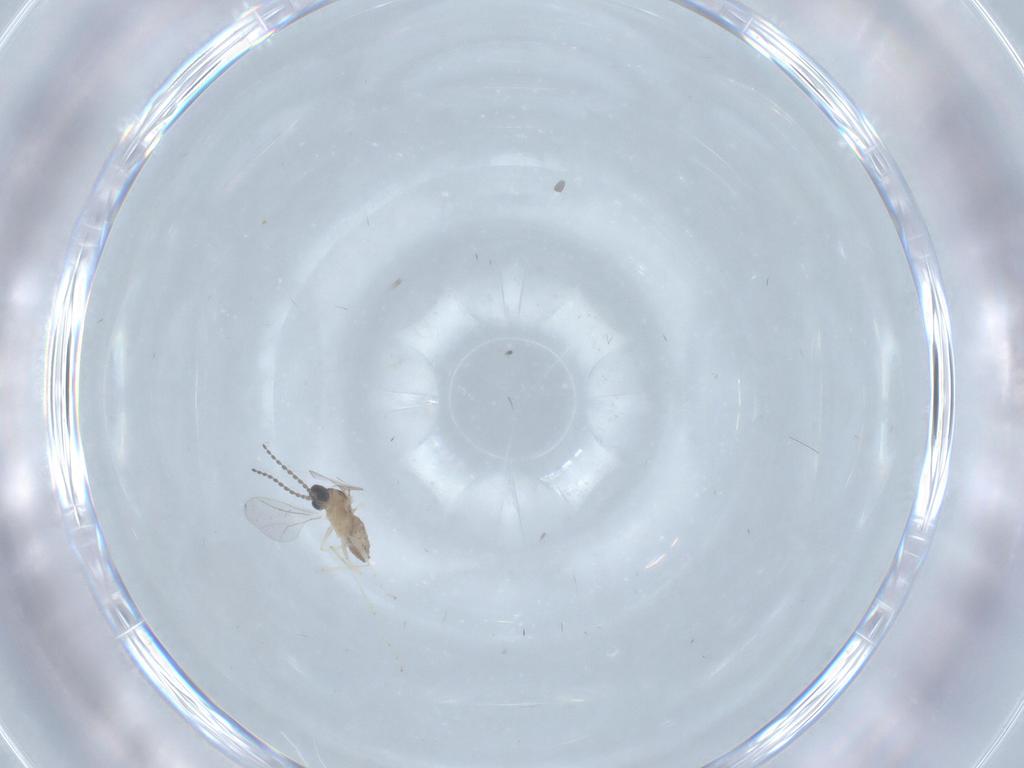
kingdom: Animalia
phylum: Arthropoda
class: Insecta
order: Diptera
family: Cecidomyiidae
